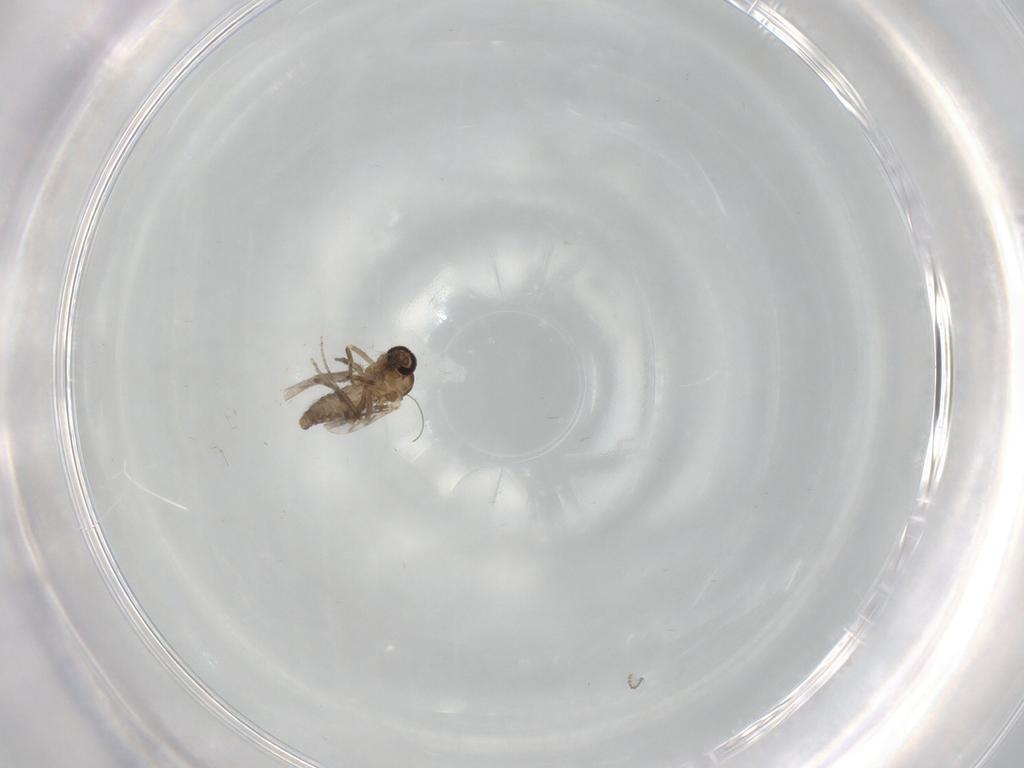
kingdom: Animalia
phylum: Arthropoda
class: Insecta
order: Diptera
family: Ceratopogonidae
